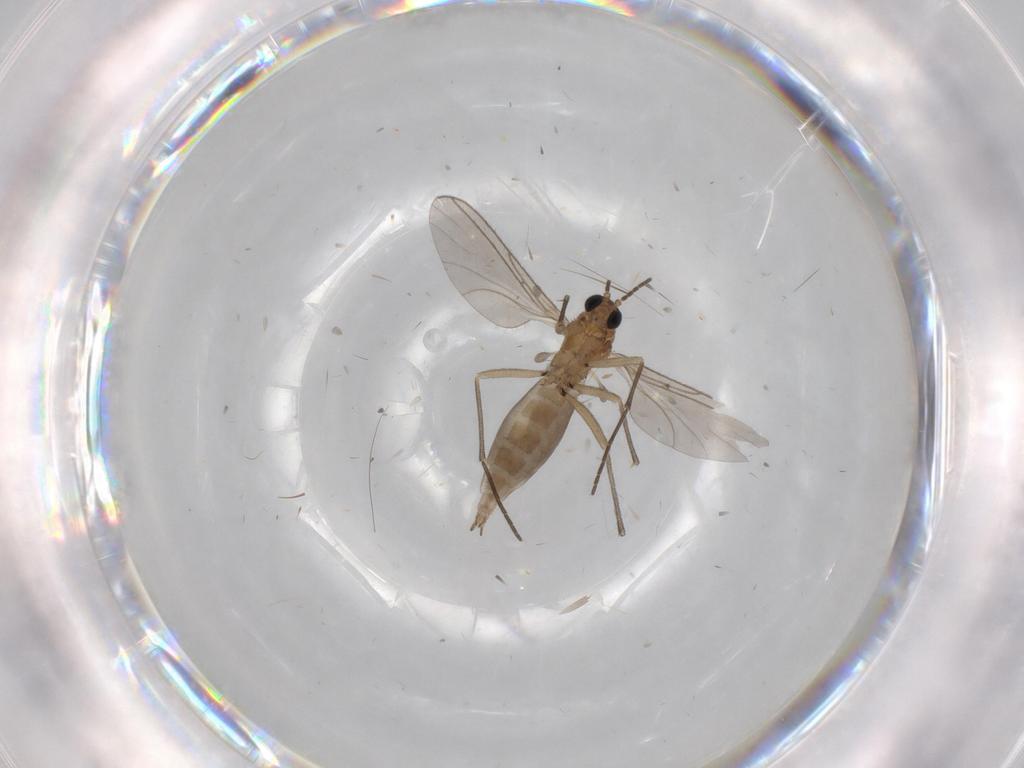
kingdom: Animalia
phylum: Arthropoda
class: Insecta
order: Diptera
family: Sciaridae
